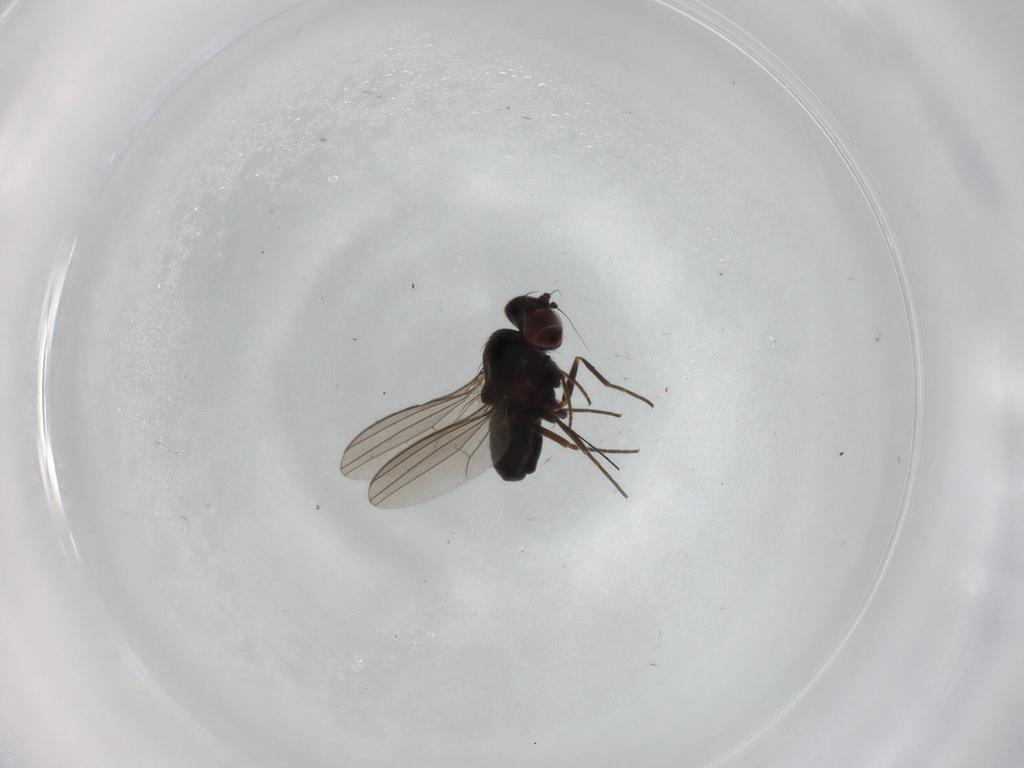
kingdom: Animalia
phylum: Arthropoda
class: Insecta
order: Diptera
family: Dolichopodidae
